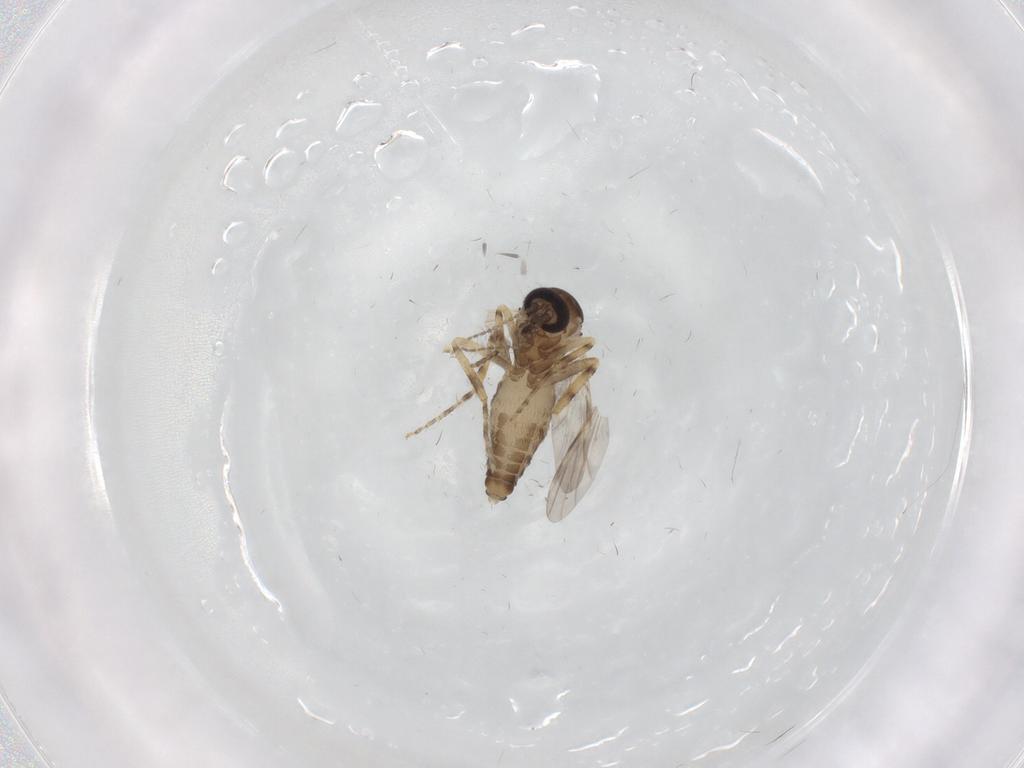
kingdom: Animalia
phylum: Arthropoda
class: Insecta
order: Diptera
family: Ceratopogonidae
